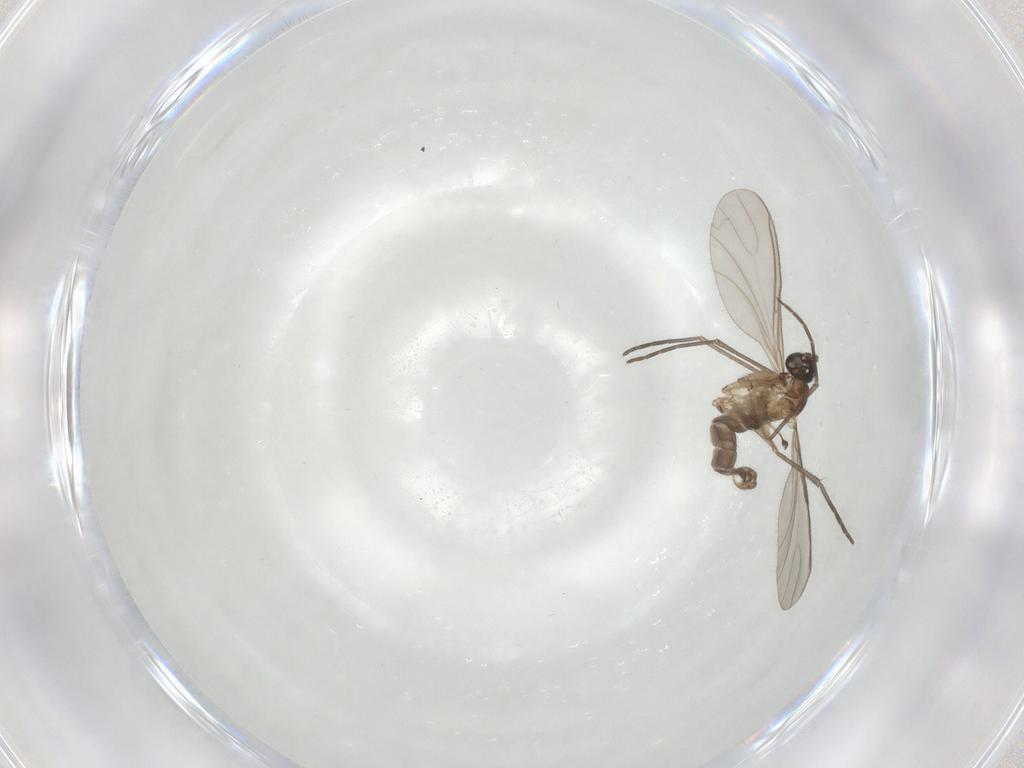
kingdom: Animalia
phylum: Arthropoda
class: Insecta
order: Diptera
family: Sciaridae
